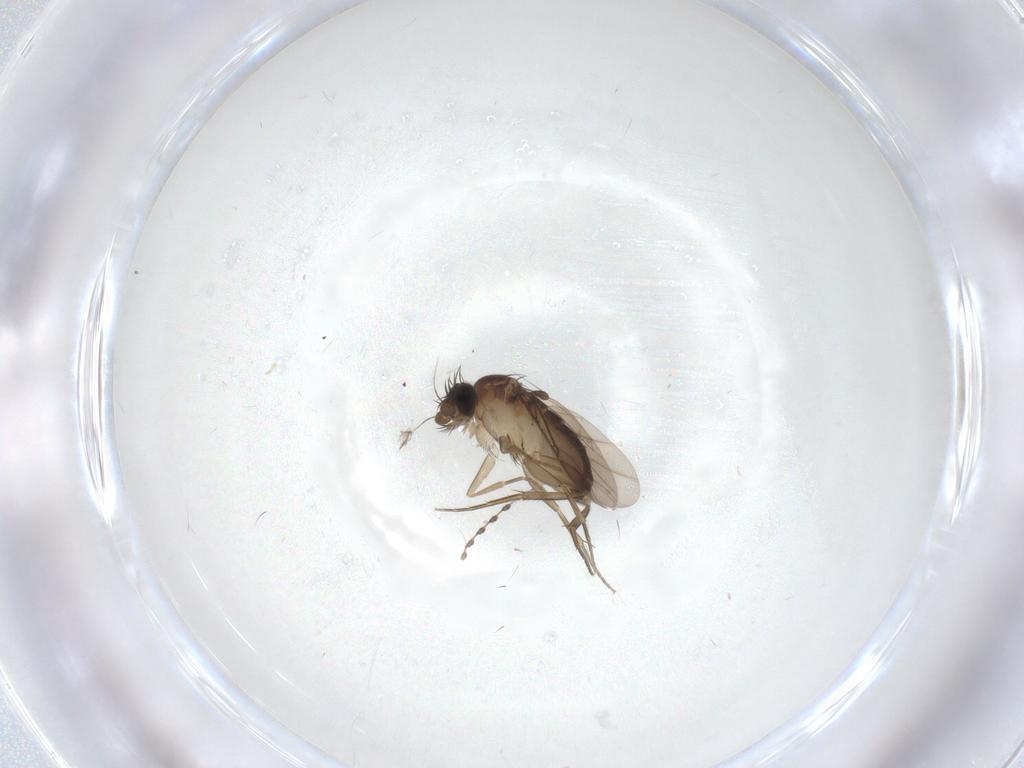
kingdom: Animalia
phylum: Arthropoda
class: Insecta
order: Diptera
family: Phoridae
